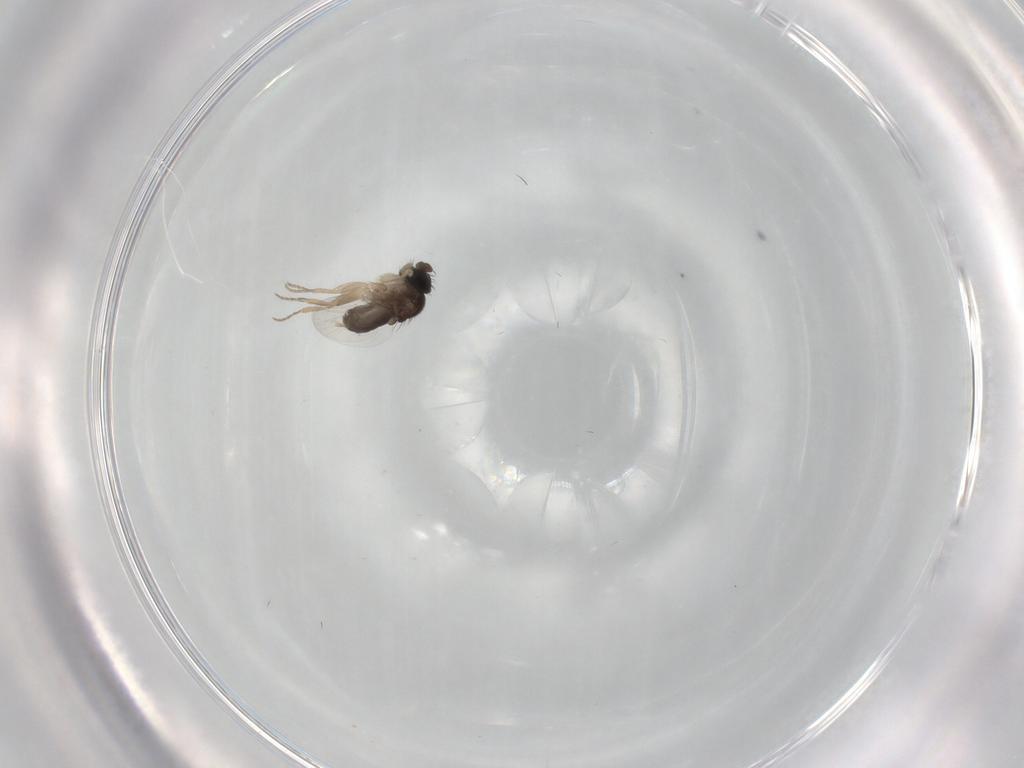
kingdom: Animalia
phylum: Arthropoda
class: Insecta
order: Diptera
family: Phoridae
